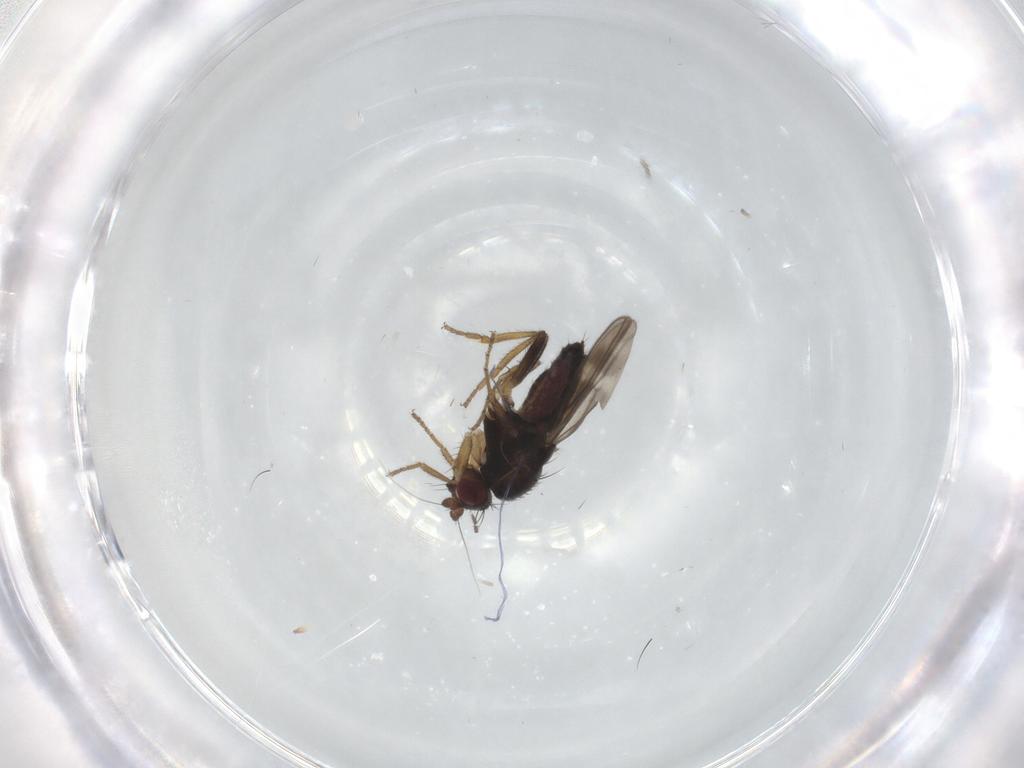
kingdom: Animalia
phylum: Arthropoda
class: Insecta
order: Diptera
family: Sphaeroceridae
